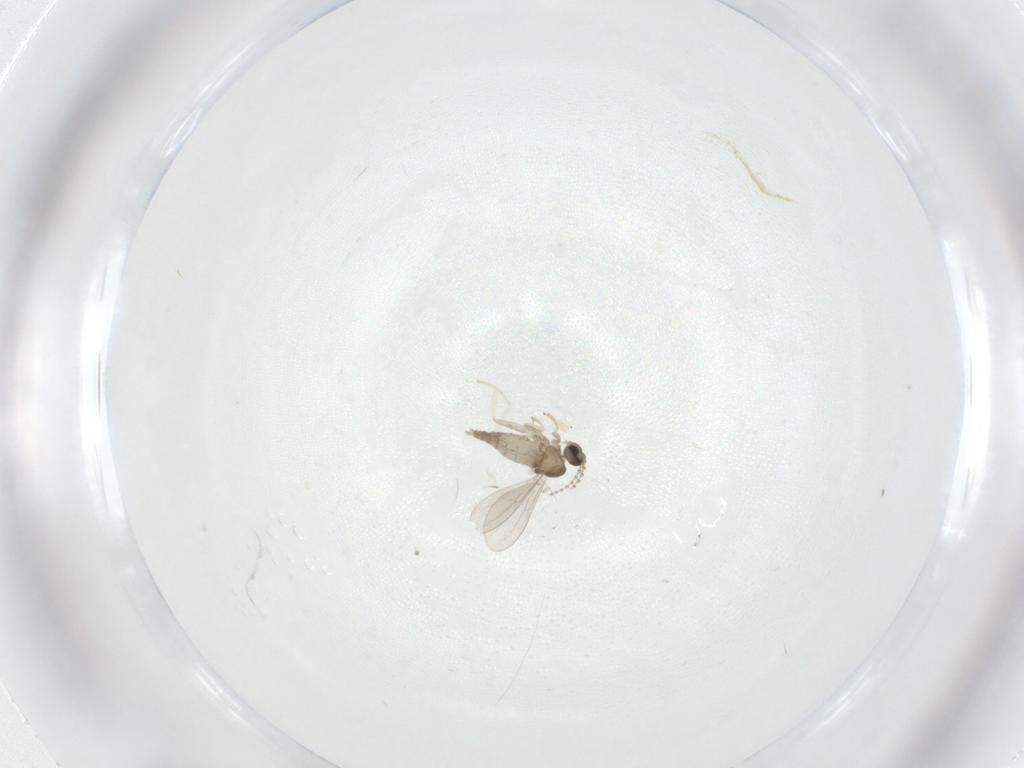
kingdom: Animalia
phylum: Arthropoda
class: Insecta
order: Diptera
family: Cecidomyiidae
